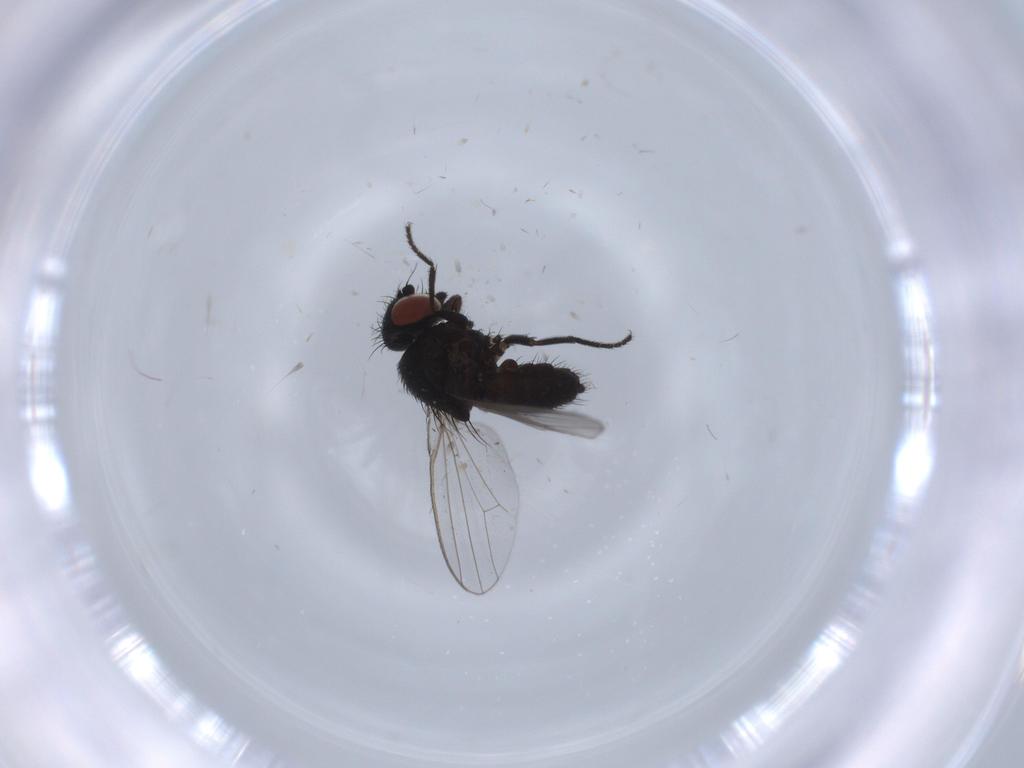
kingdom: Animalia
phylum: Arthropoda
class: Insecta
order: Diptera
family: Milichiidae
